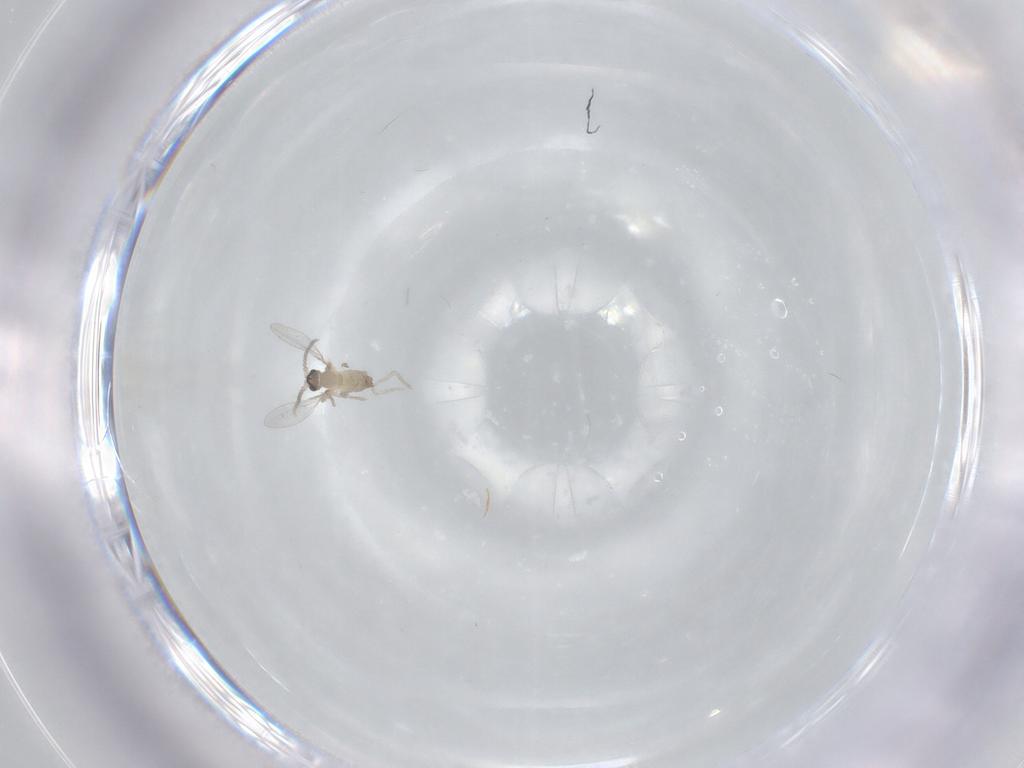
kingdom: Animalia
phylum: Arthropoda
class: Insecta
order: Diptera
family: Cecidomyiidae
